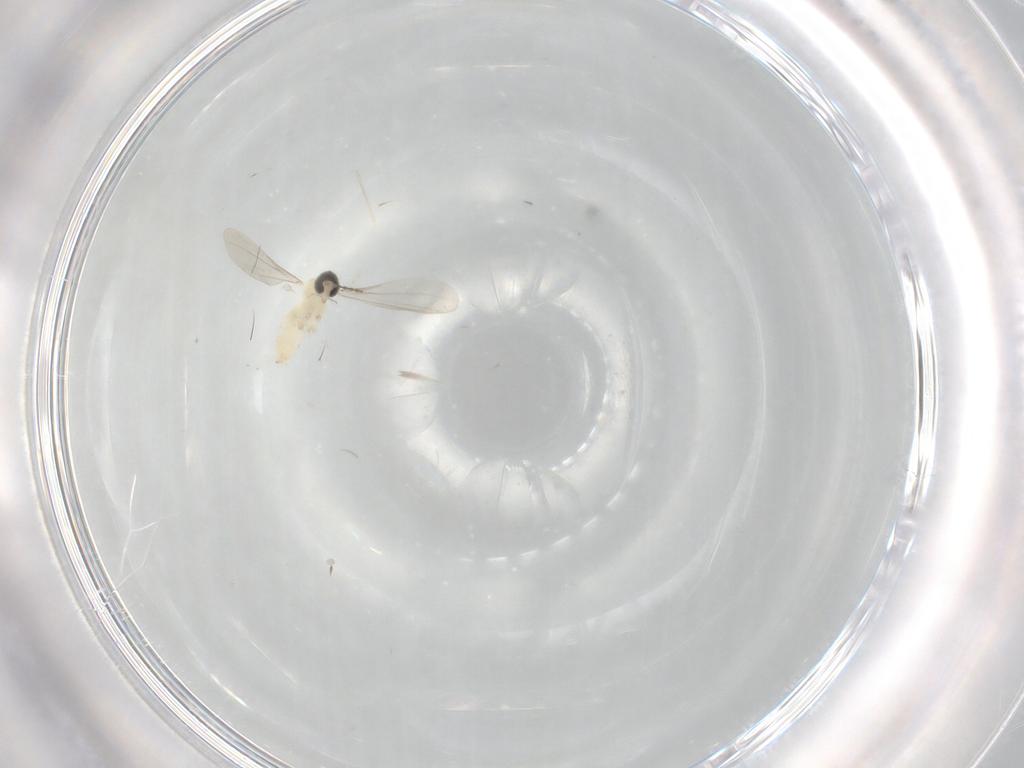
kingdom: Animalia
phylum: Arthropoda
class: Insecta
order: Diptera
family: Cecidomyiidae
